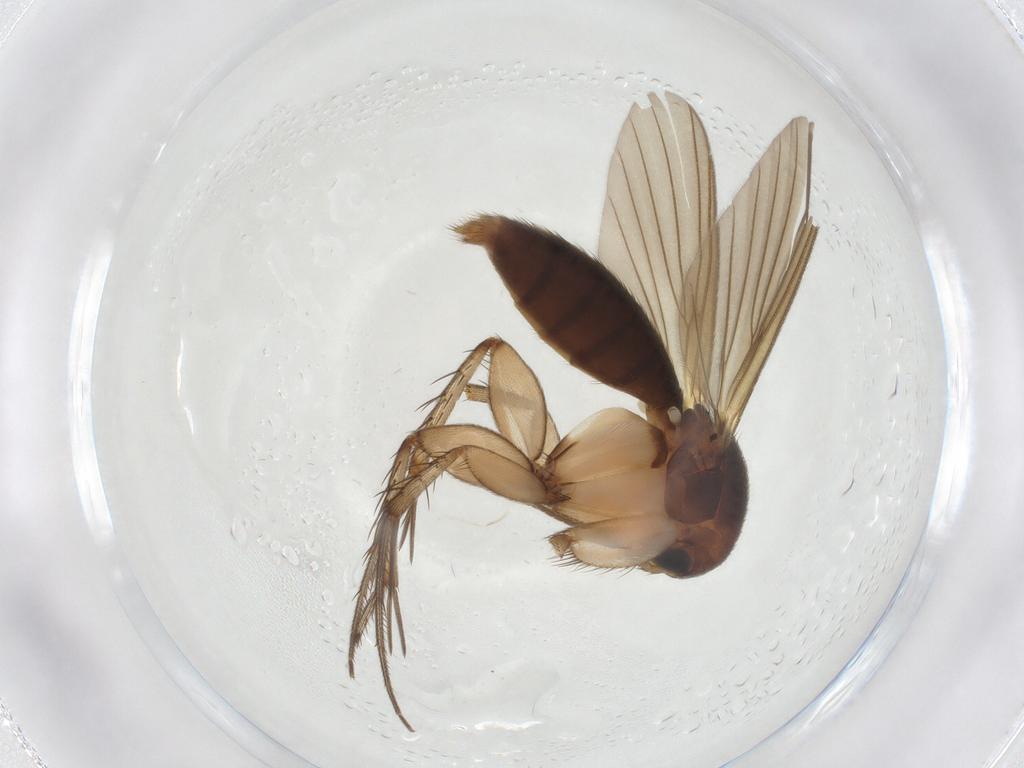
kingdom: Animalia
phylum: Arthropoda
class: Insecta
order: Diptera
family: Mycetophilidae
